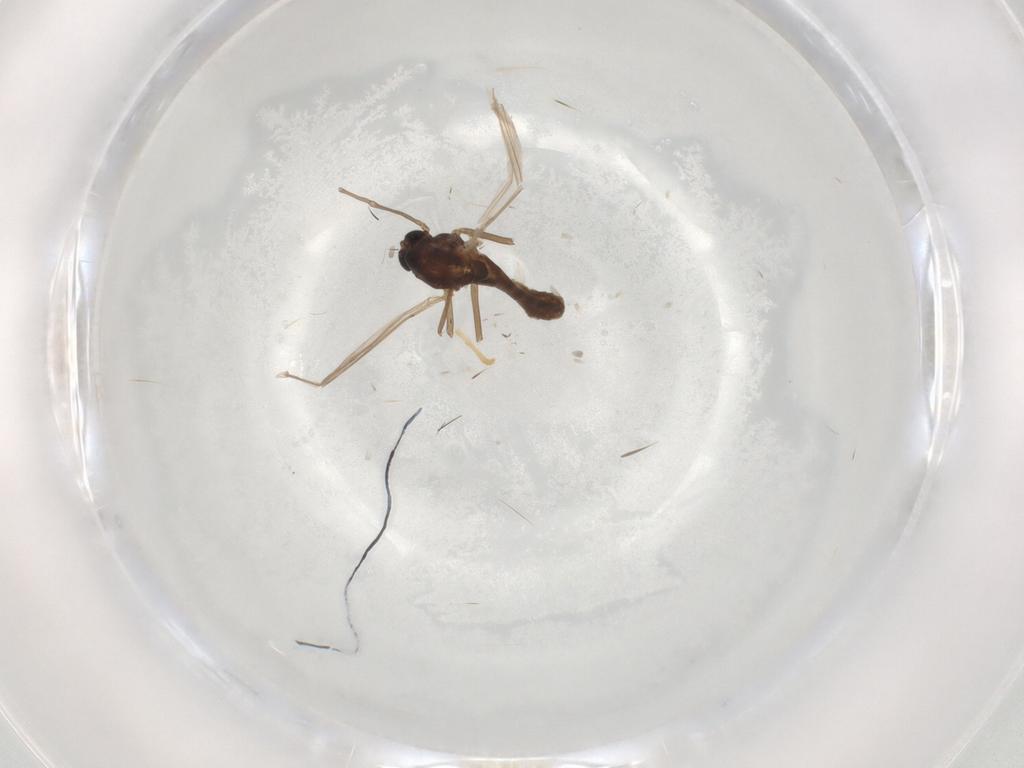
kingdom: Animalia
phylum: Arthropoda
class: Insecta
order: Diptera
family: Chironomidae
